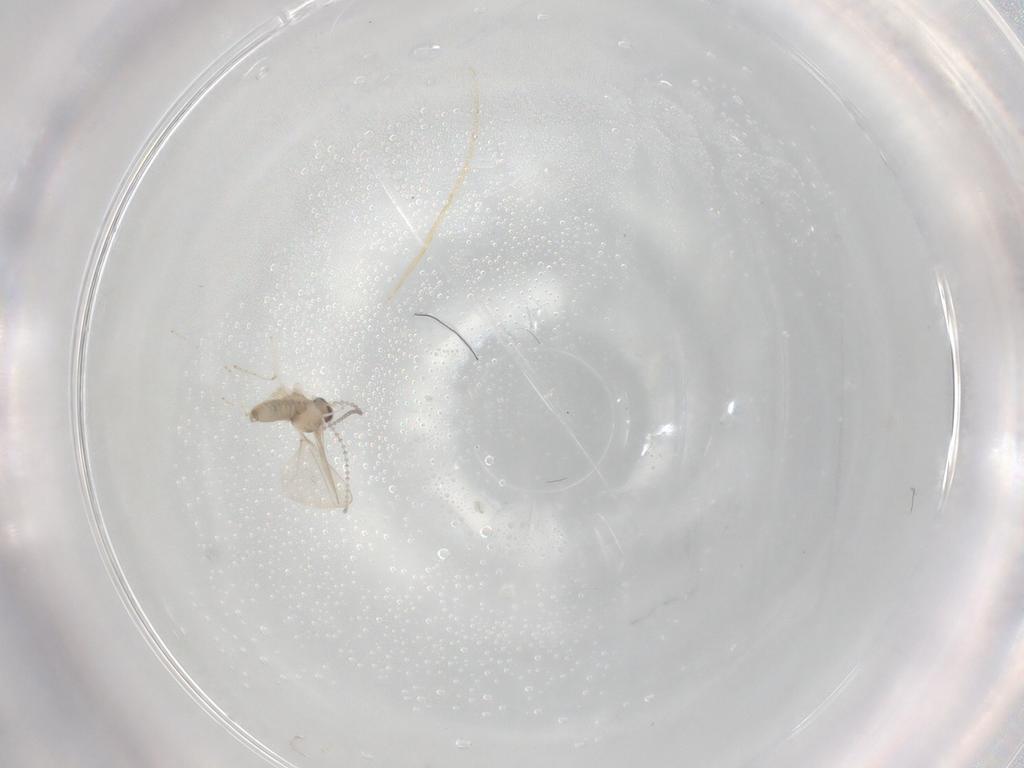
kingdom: Animalia
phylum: Arthropoda
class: Insecta
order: Diptera
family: Cecidomyiidae
